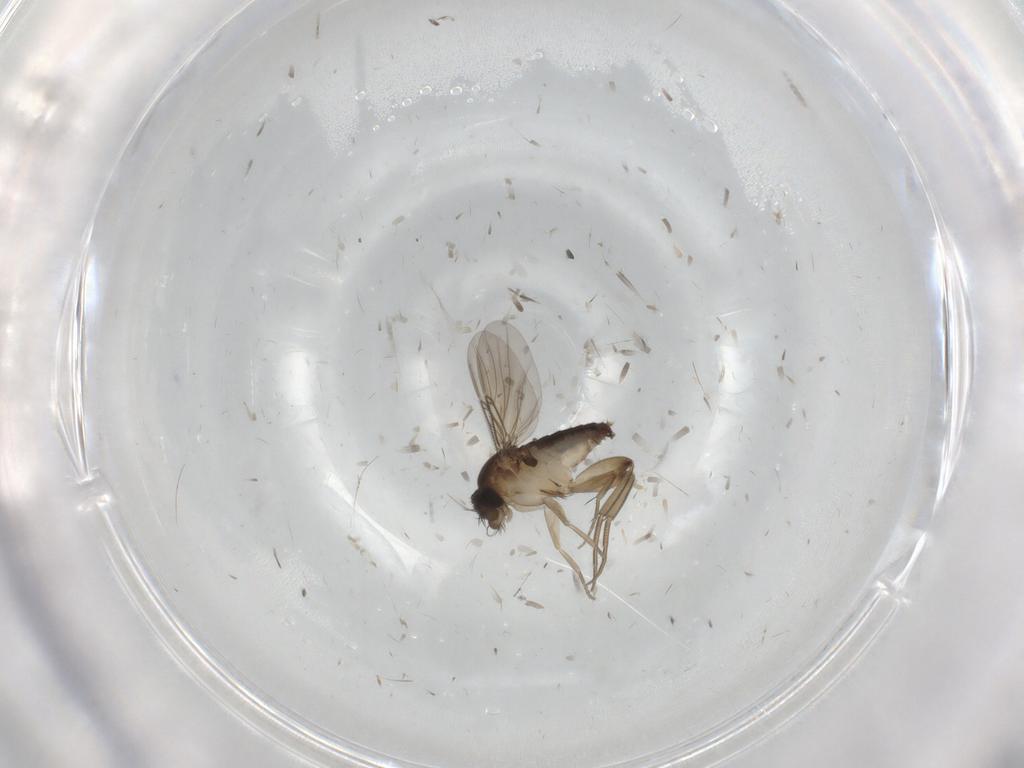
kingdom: Animalia
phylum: Arthropoda
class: Insecta
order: Diptera
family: Phoridae
